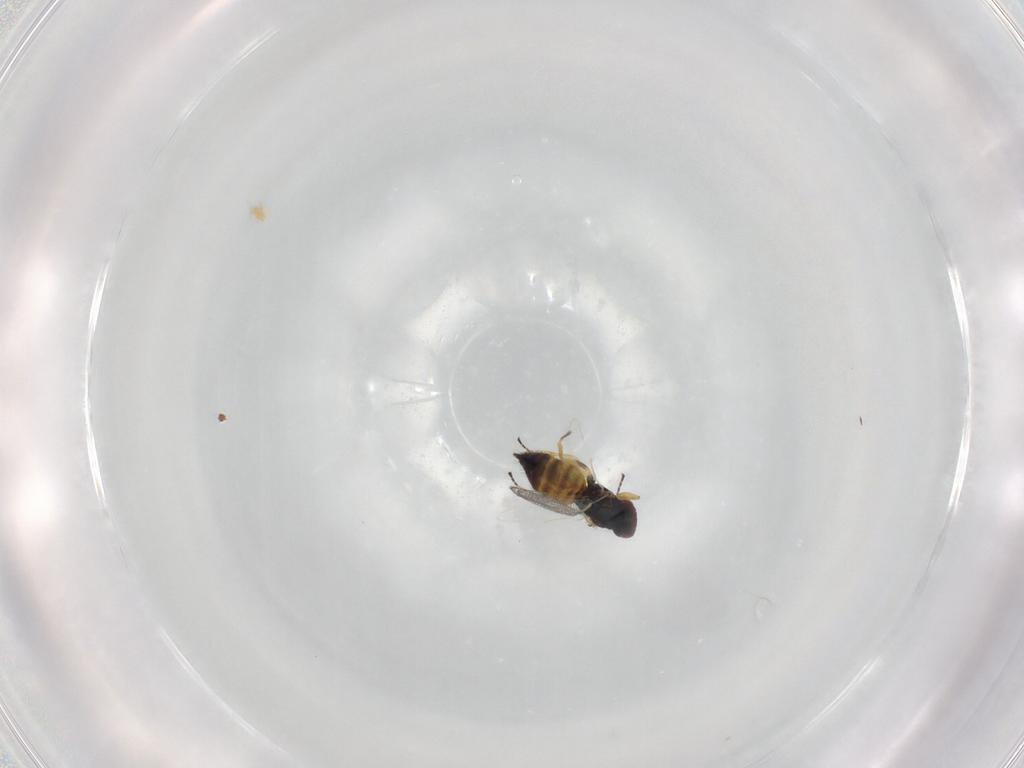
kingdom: Animalia
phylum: Arthropoda
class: Insecta
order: Hymenoptera
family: Eulophidae
